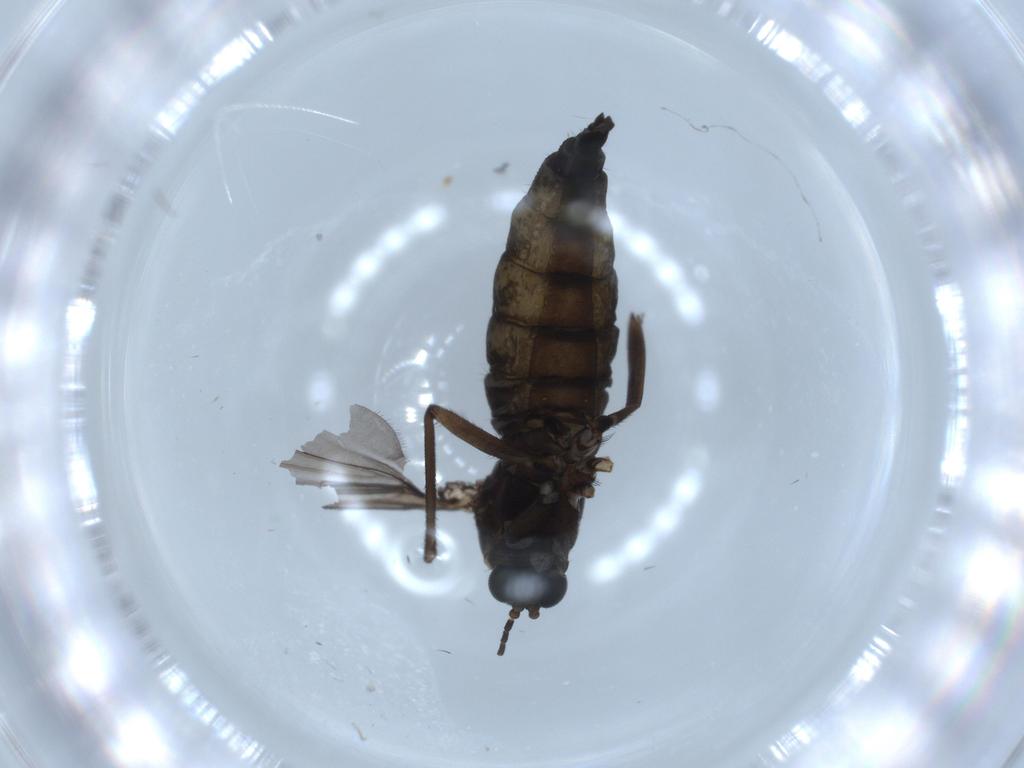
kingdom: Animalia
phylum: Arthropoda
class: Insecta
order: Diptera
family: Sciaridae
